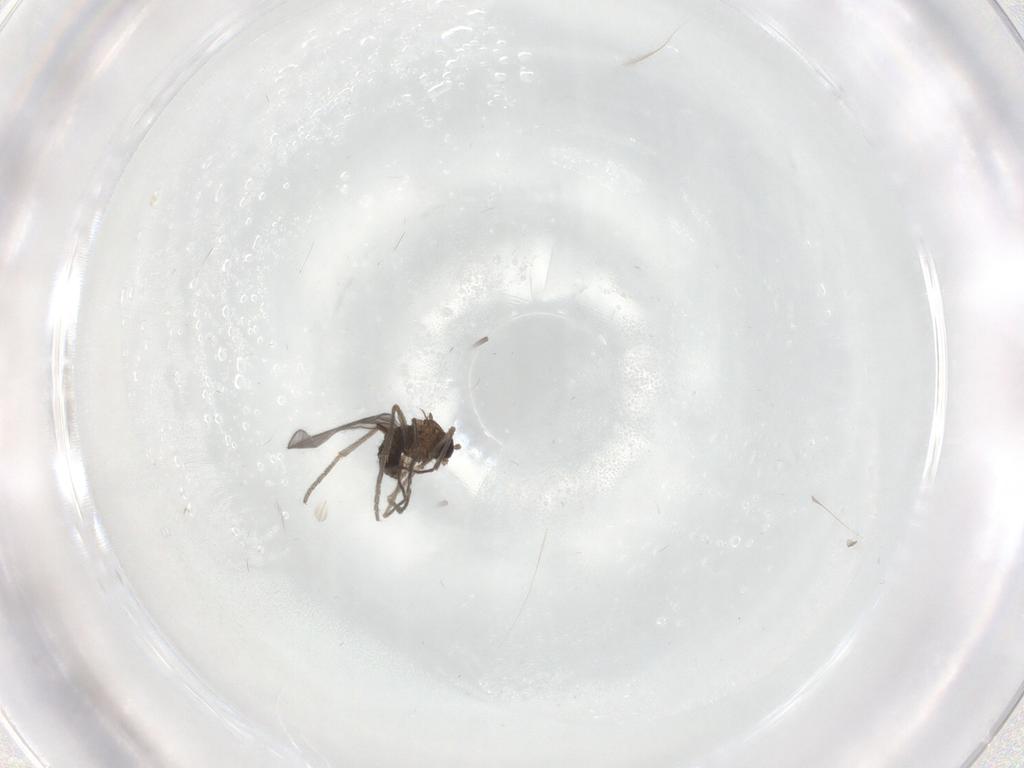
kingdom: Animalia
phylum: Arthropoda
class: Insecta
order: Diptera
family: Sciaridae
